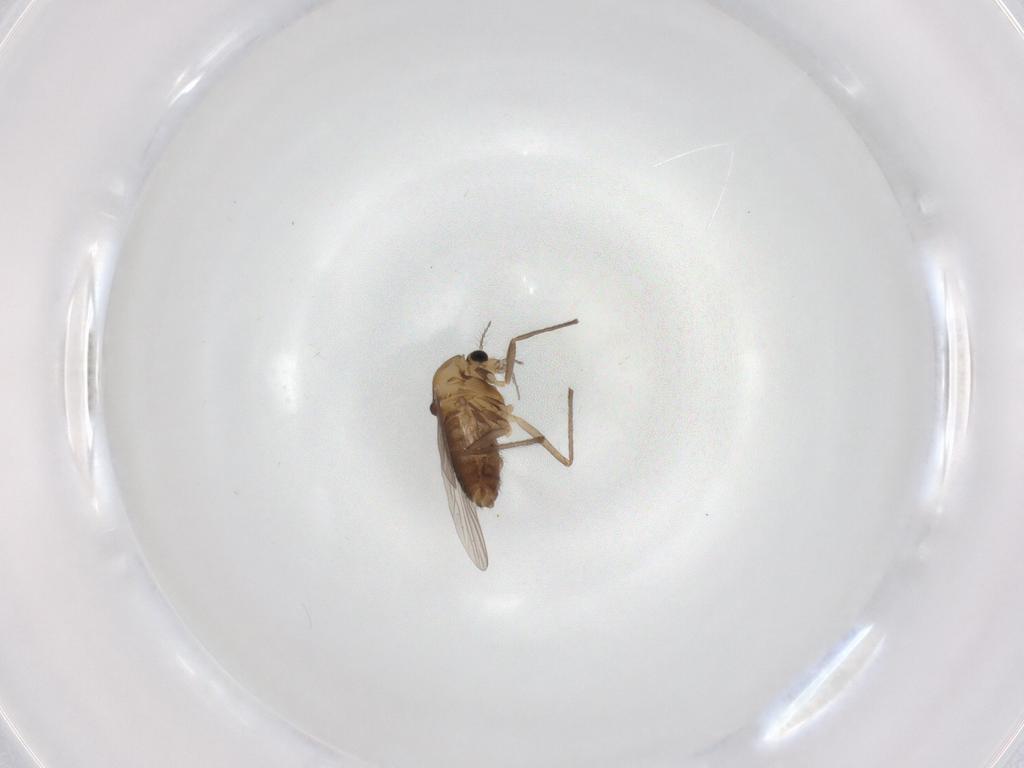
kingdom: Animalia
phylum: Arthropoda
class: Insecta
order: Diptera
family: Chironomidae
